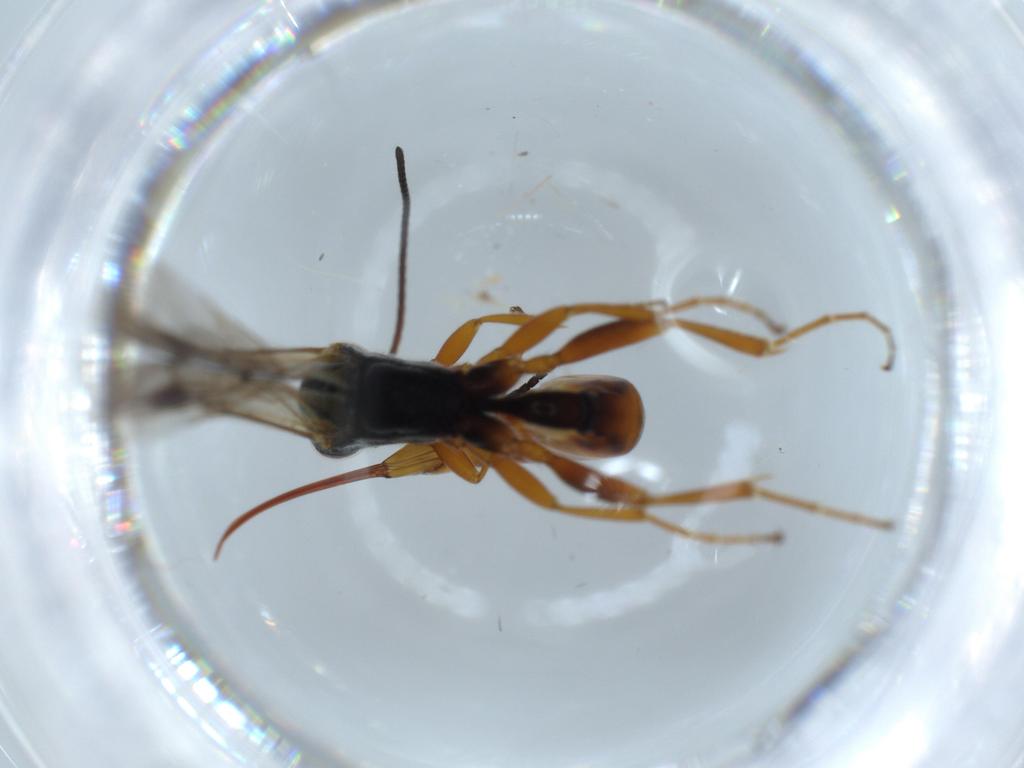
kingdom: Animalia
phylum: Arthropoda
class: Insecta
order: Hymenoptera
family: Ichneumonidae
